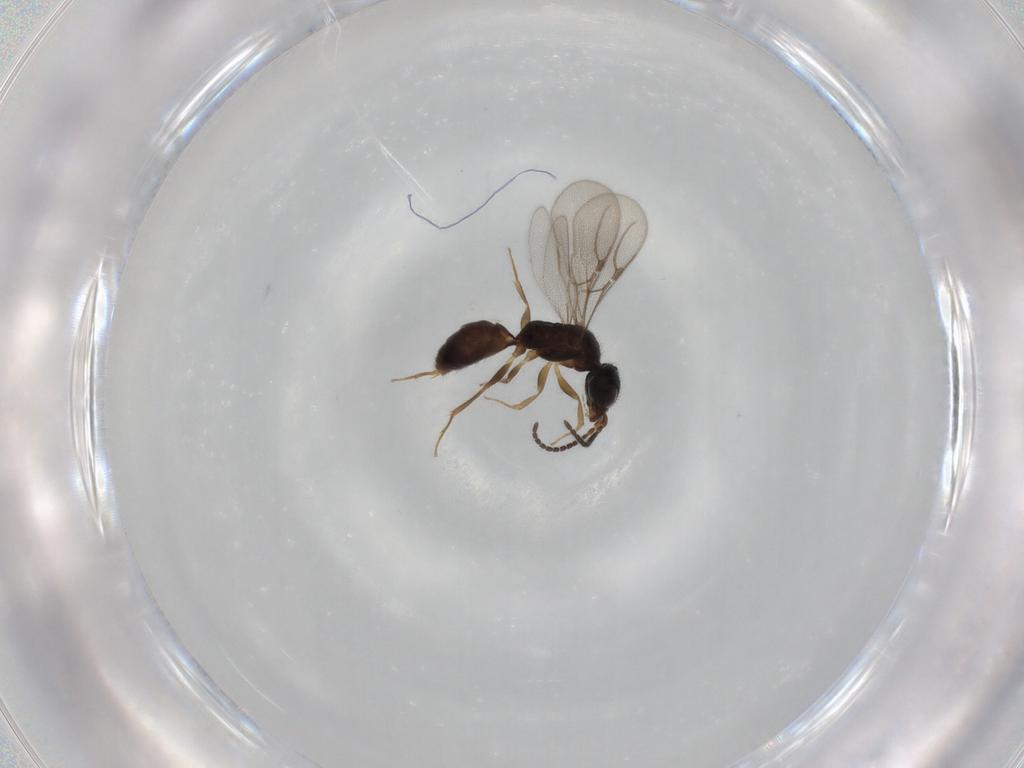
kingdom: Animalia
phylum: Arthropoda
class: Insecta
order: Hymenoptera
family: Bethylidae
